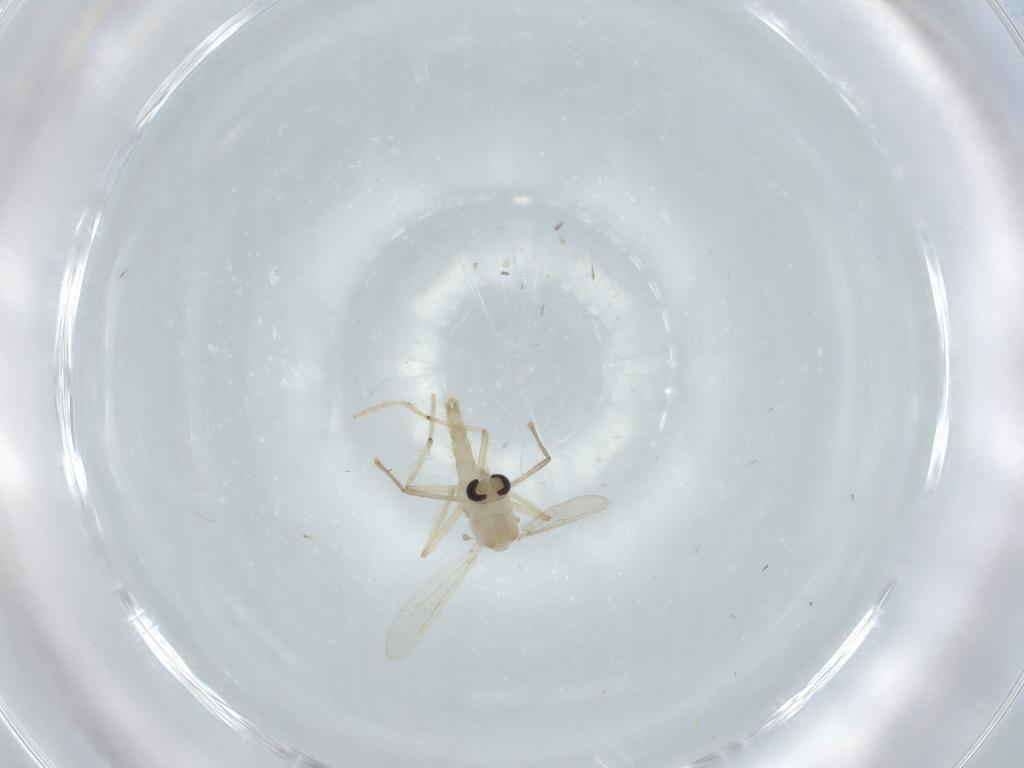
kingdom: Animalia
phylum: Arthropoda
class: Insecta
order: Diptera
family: Chironomidae
